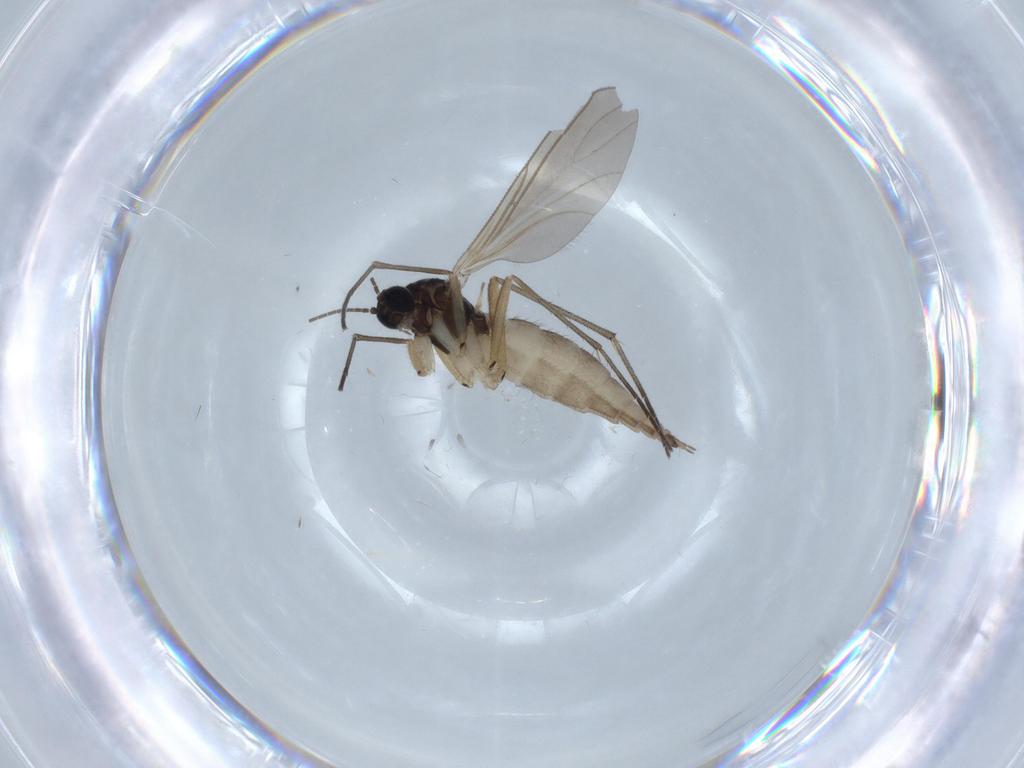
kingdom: Animalia
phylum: Arthropoda
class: Insecta
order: Diptera
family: Sciaridae
